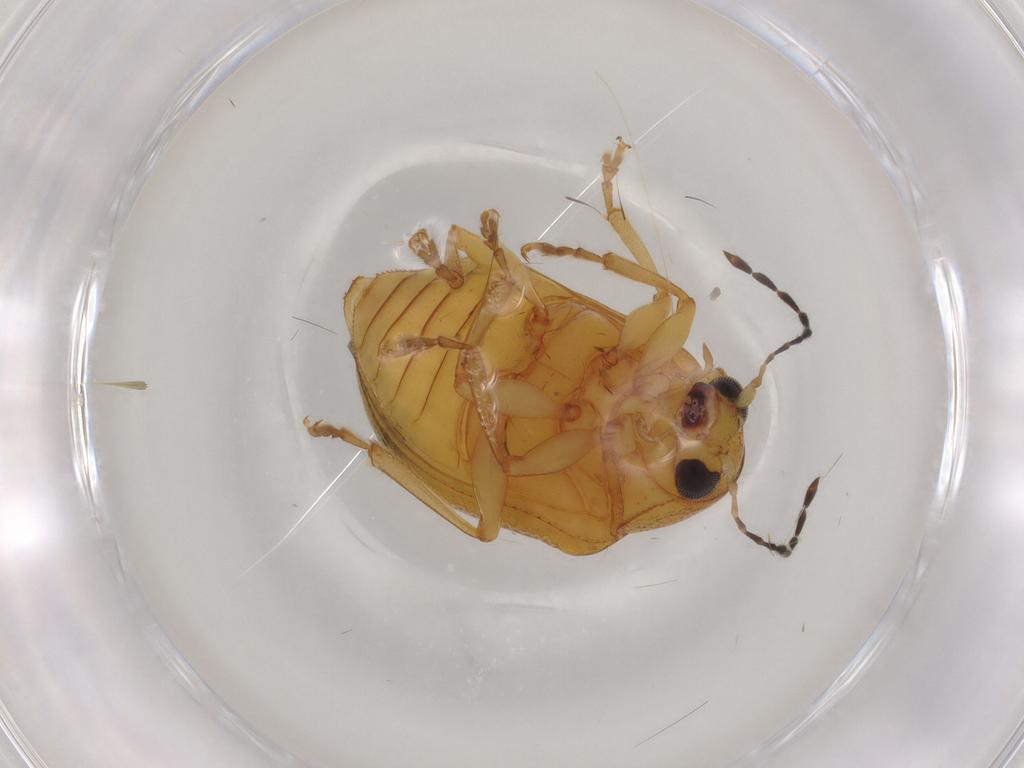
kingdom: Animalia
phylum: Arthropoda
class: Insecta
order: Coleoptera
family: Chrysomelidae
